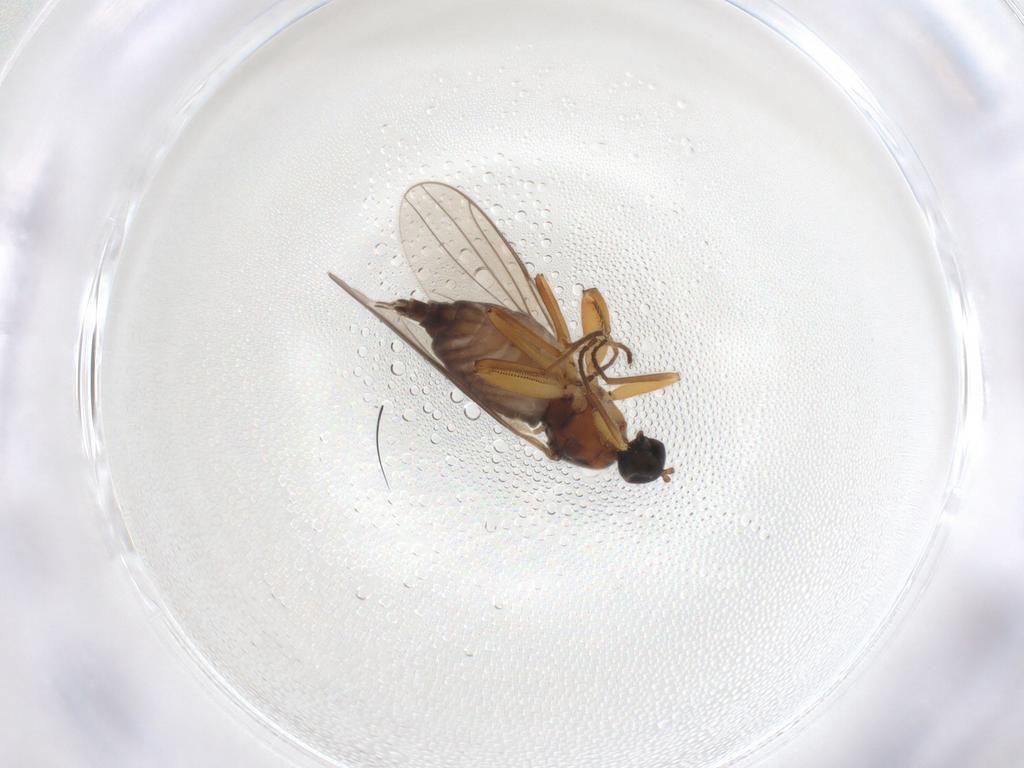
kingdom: Animalia
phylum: Arthropoda
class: Insecta
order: Diptera
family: Hybotidae
